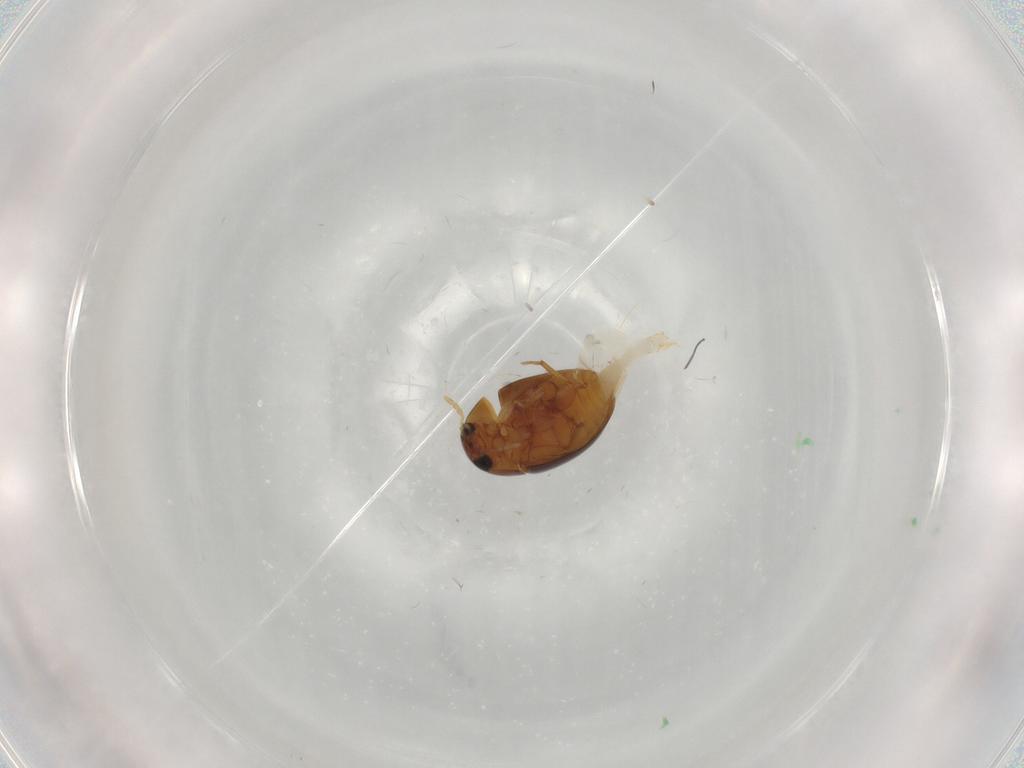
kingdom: Animalia
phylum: Arthropoda
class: Insecta
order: Coleoptera
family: Phalacridae
